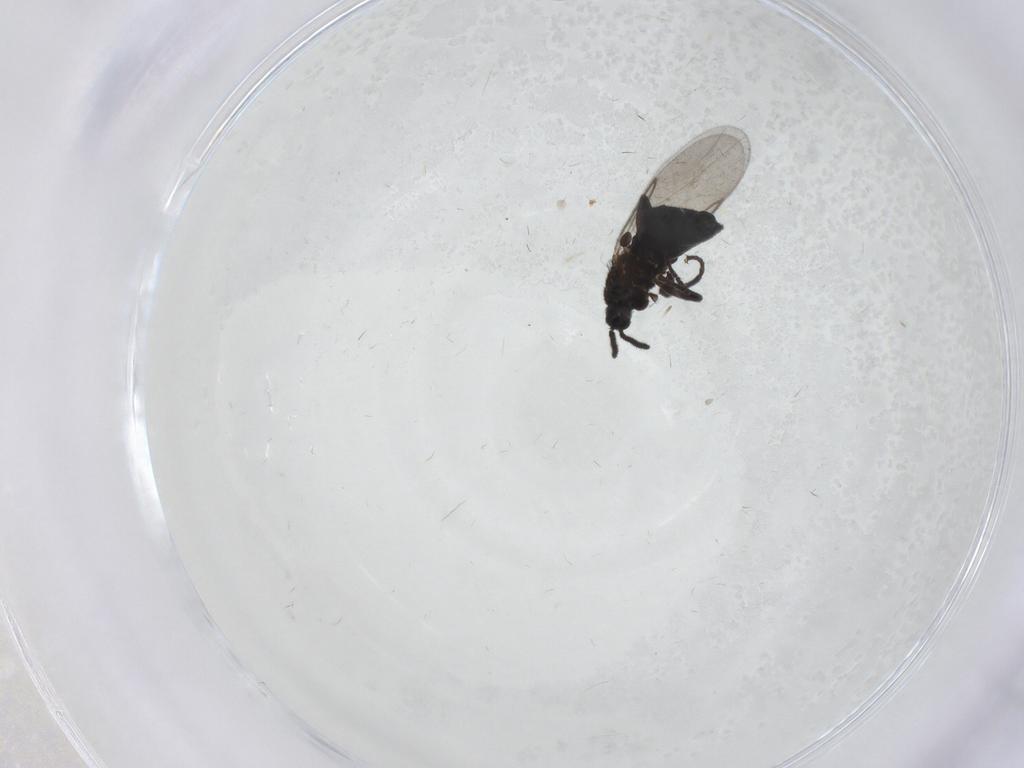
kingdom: Animalia
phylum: Arthropoda
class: Insecta
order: Diptera
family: Scatopsidae
